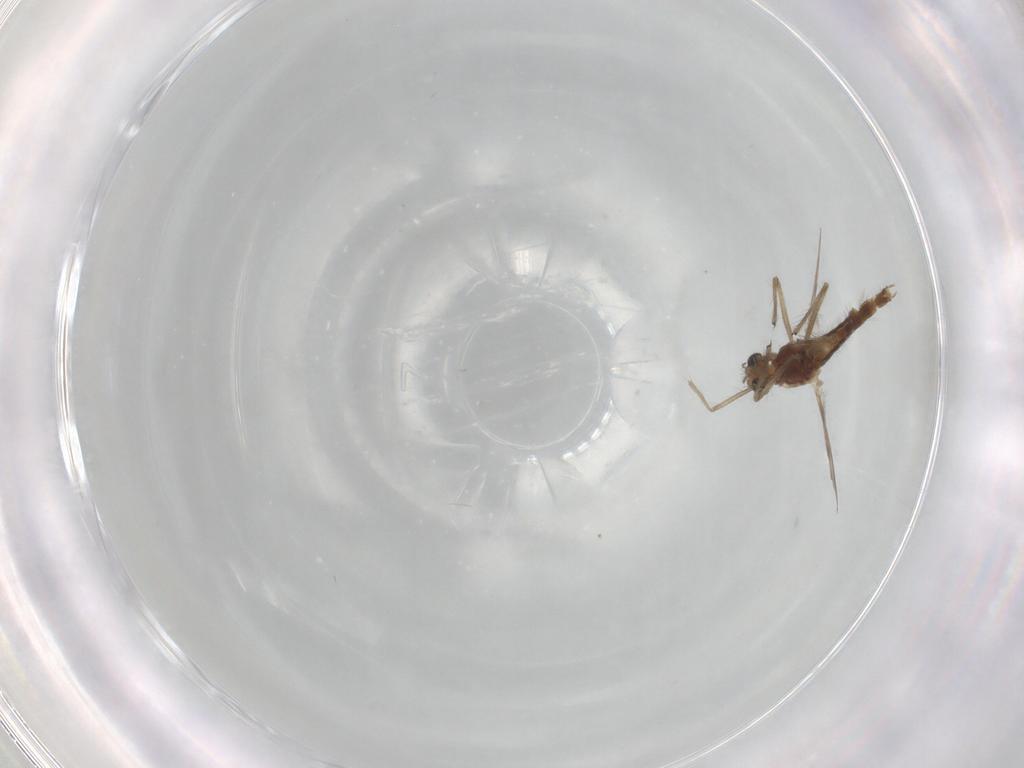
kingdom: Animalia
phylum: Arthropoda
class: Insecta
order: Diptera
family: Chironomidae
